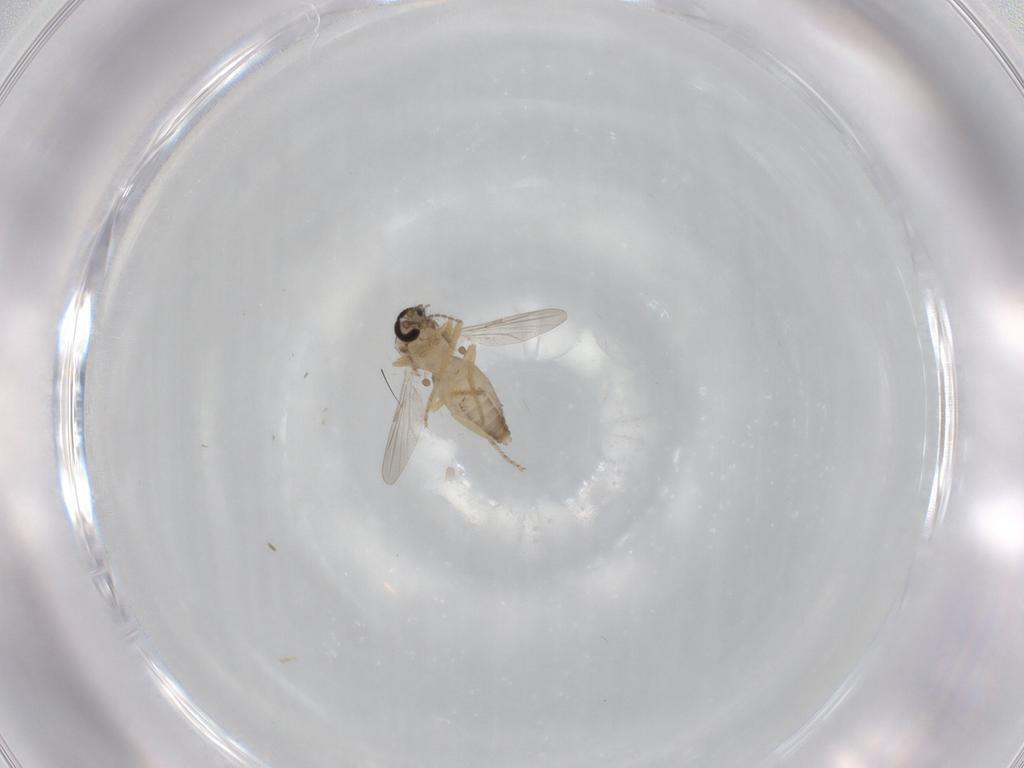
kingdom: Animalia
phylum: Arthropoda
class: Insecta
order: Diptera
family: Ceratopogonidae
